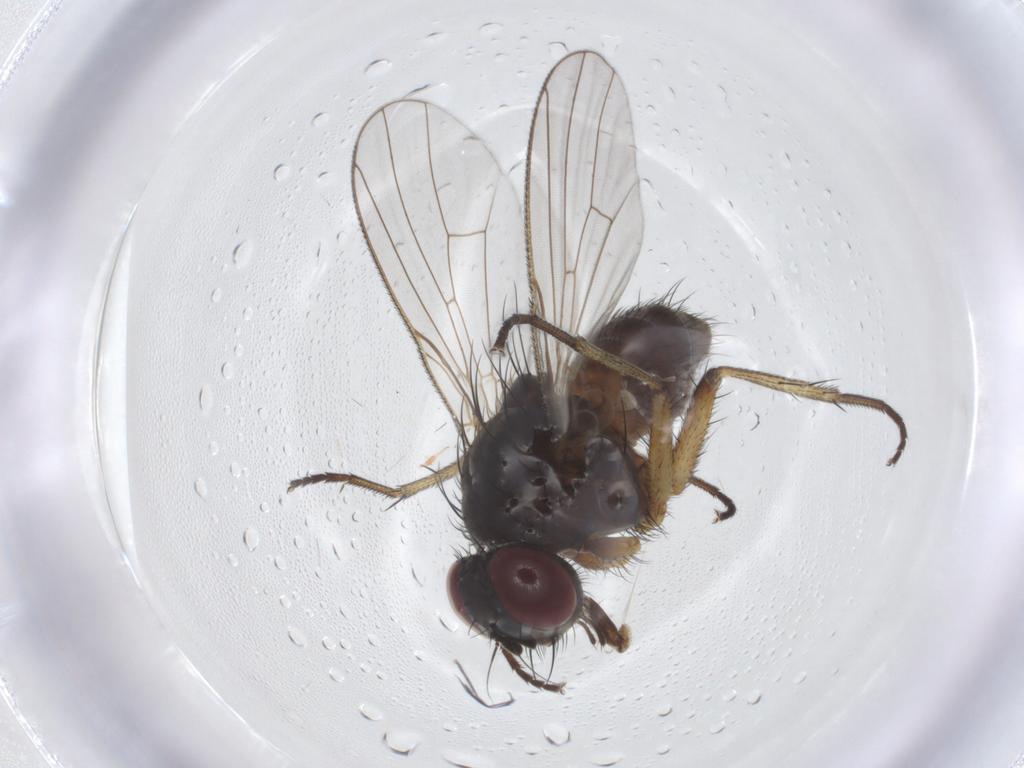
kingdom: Animalia
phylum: Arthropoda
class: Insecta
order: Diptera
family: Muscidae
